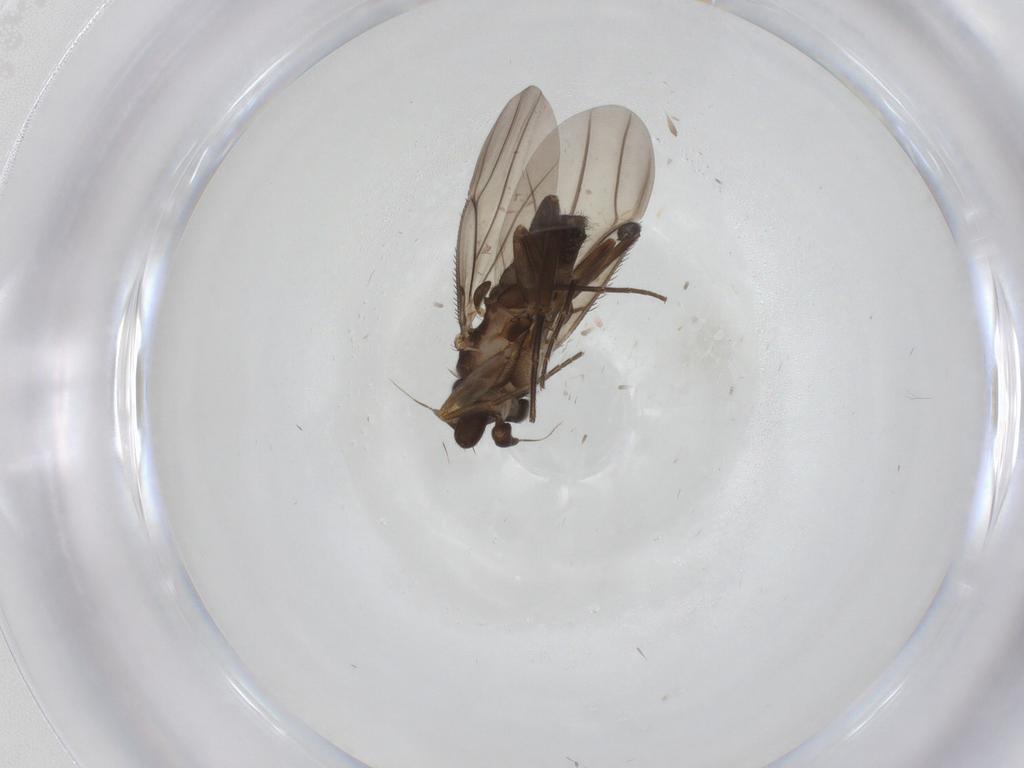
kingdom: Animalia
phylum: Arthropoda
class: Insecta
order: Diptera
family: Phoridae
